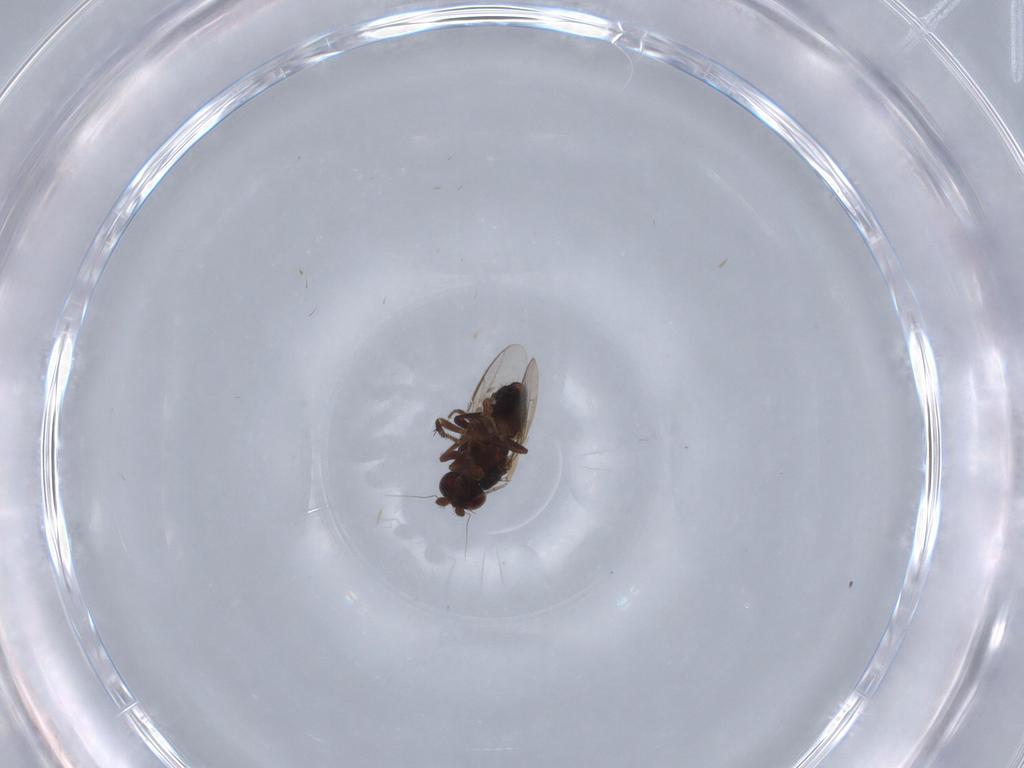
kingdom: Animalia
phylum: Arthropoda
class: Insecta
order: Diptera
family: Sphaeroceridae
